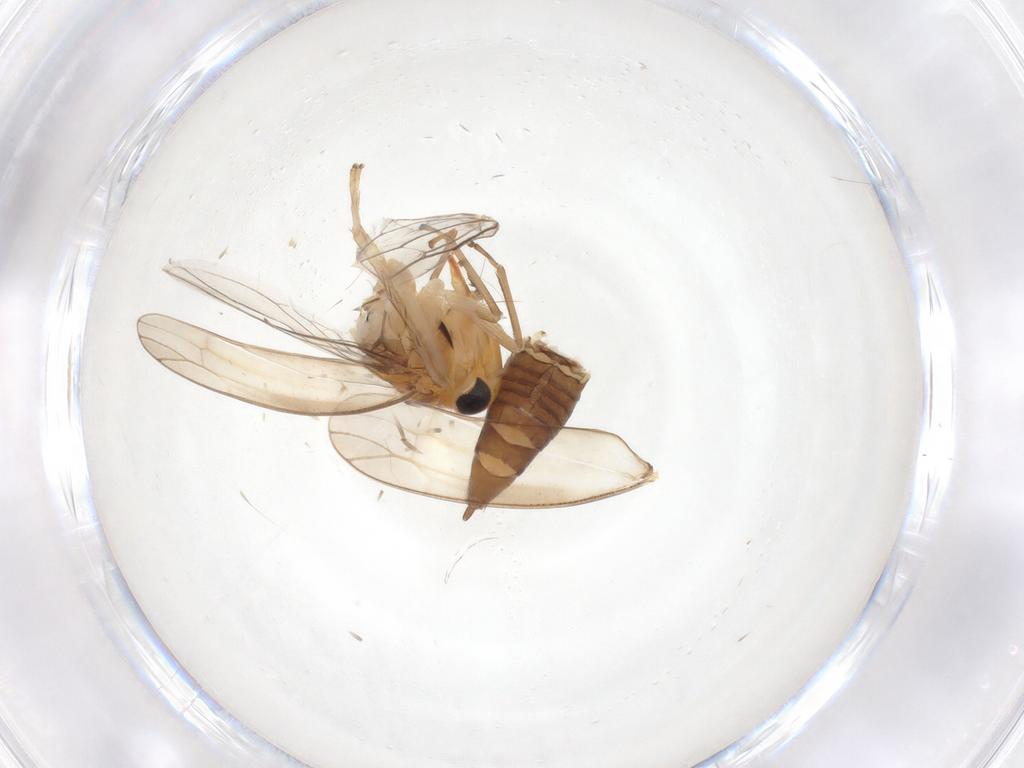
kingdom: Animalia
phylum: Arthropoda
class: Insecta
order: Hemiptera
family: Cicadellidae
